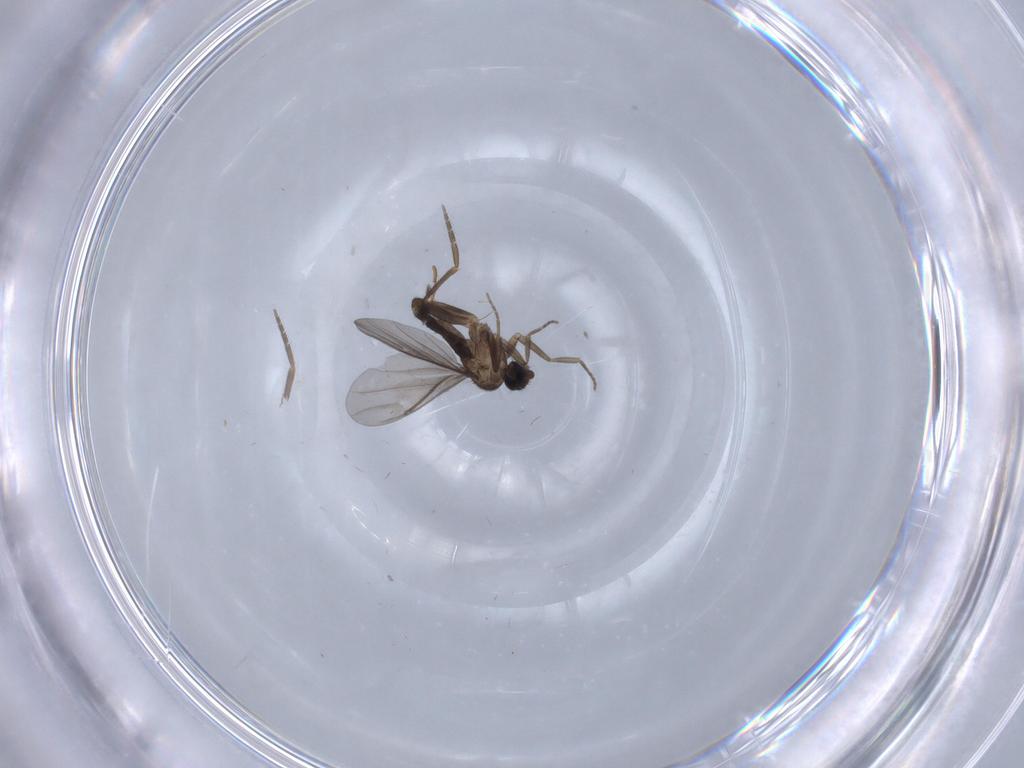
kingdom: Animalia
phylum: Arthropoda
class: Insecta
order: Diptera
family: Phoridae
